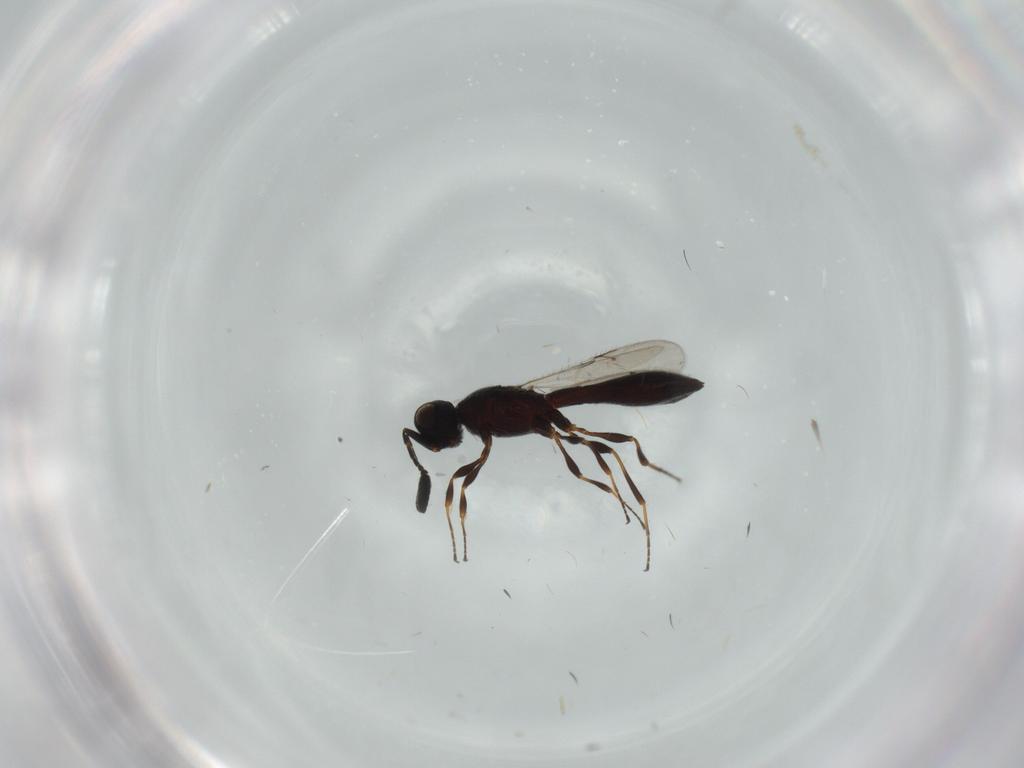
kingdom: Animalia
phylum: Arthropoda
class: Insecta
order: Hymenoptera
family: Scelionidae
